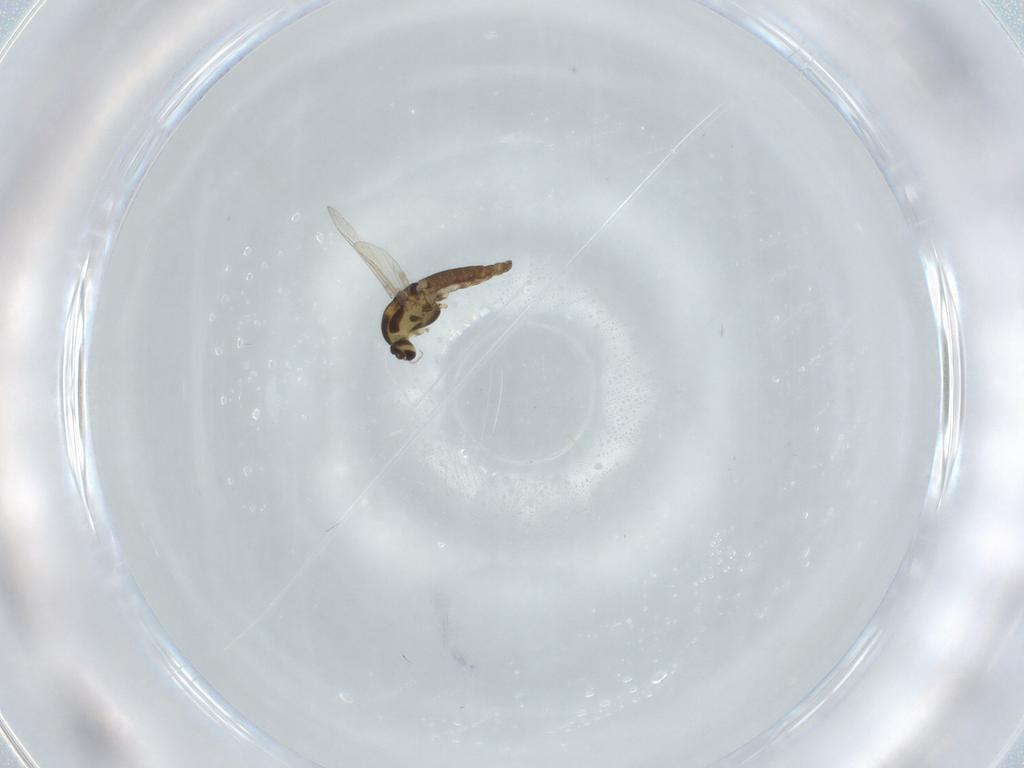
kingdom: Animalia
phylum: Arthropoda
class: Insecta
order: Diptera
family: Chironomidae
